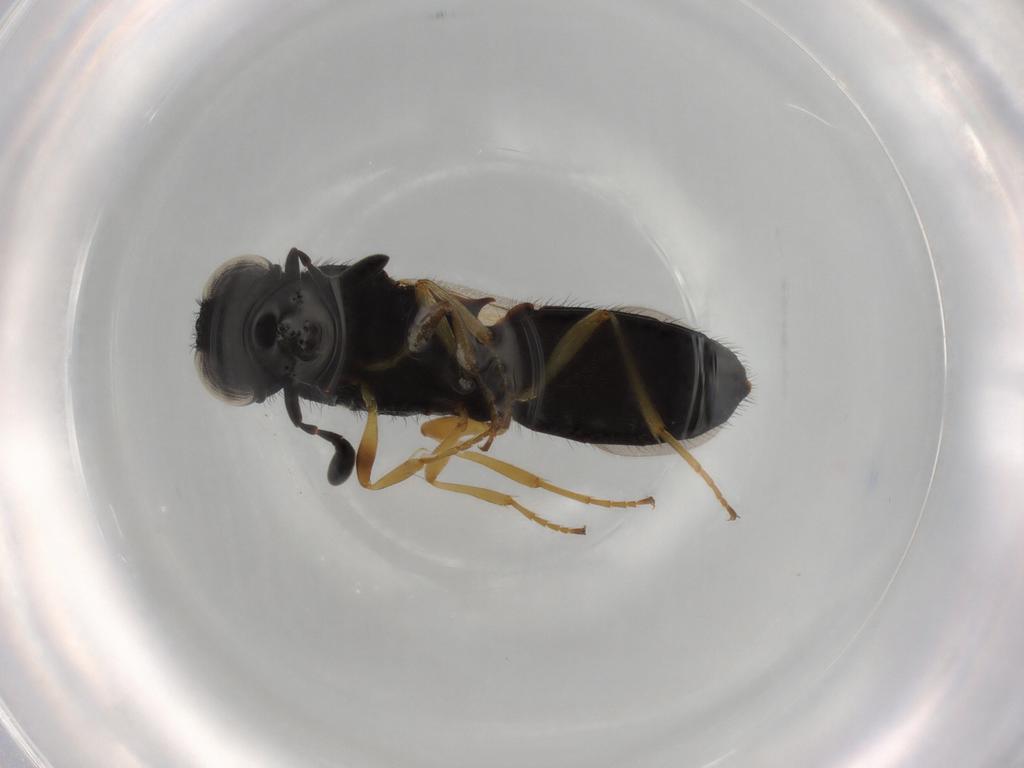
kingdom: Animalia
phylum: Arthropoda
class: Insecta
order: Hymenoptera
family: Scelionidae
